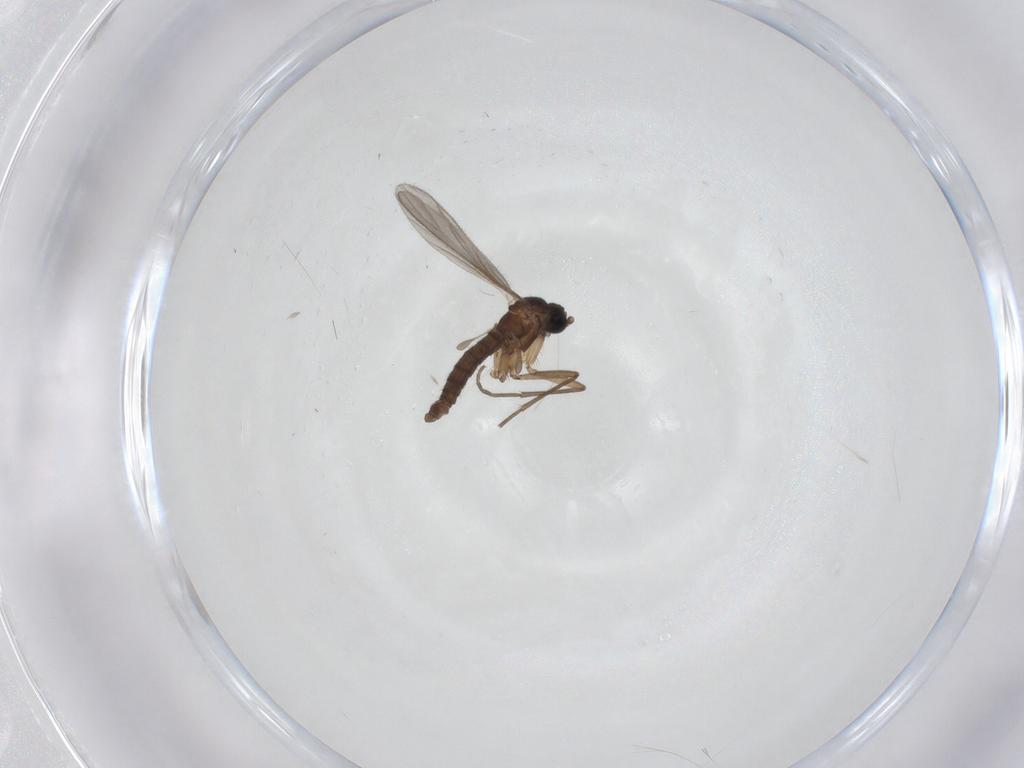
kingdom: Animalia
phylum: Arthropoda
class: Insecta
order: Diptera
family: Sciaridae
